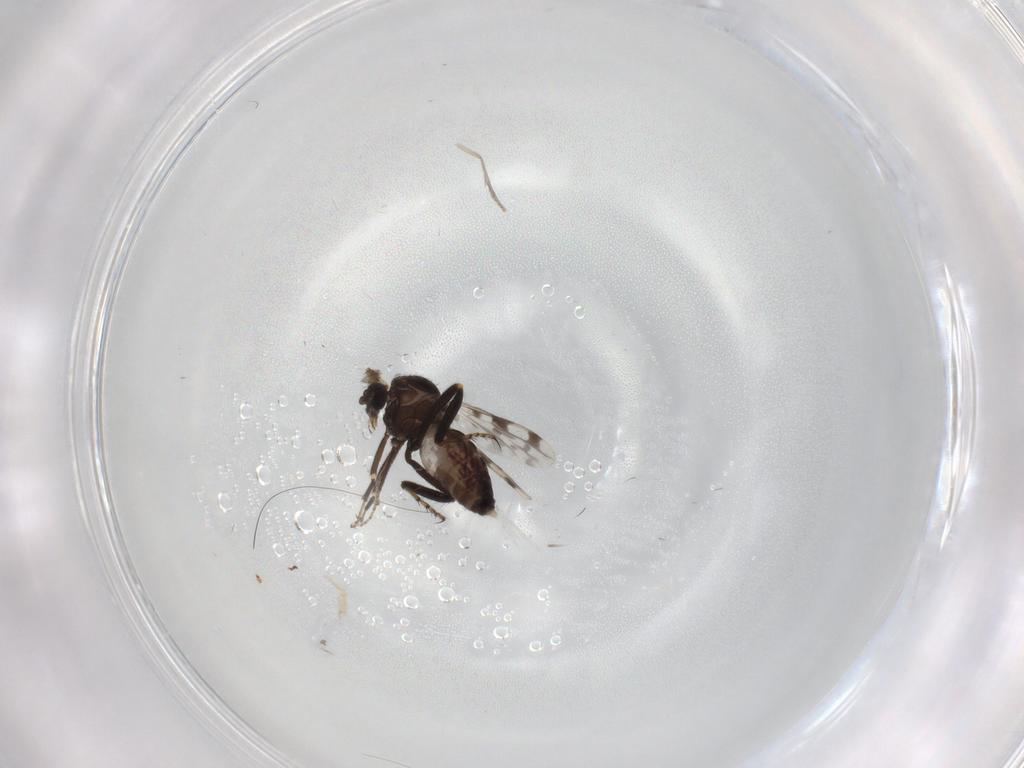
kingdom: Animalia
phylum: Arthropoda
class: Insecta
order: Diptera
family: Ceratopogonidae
